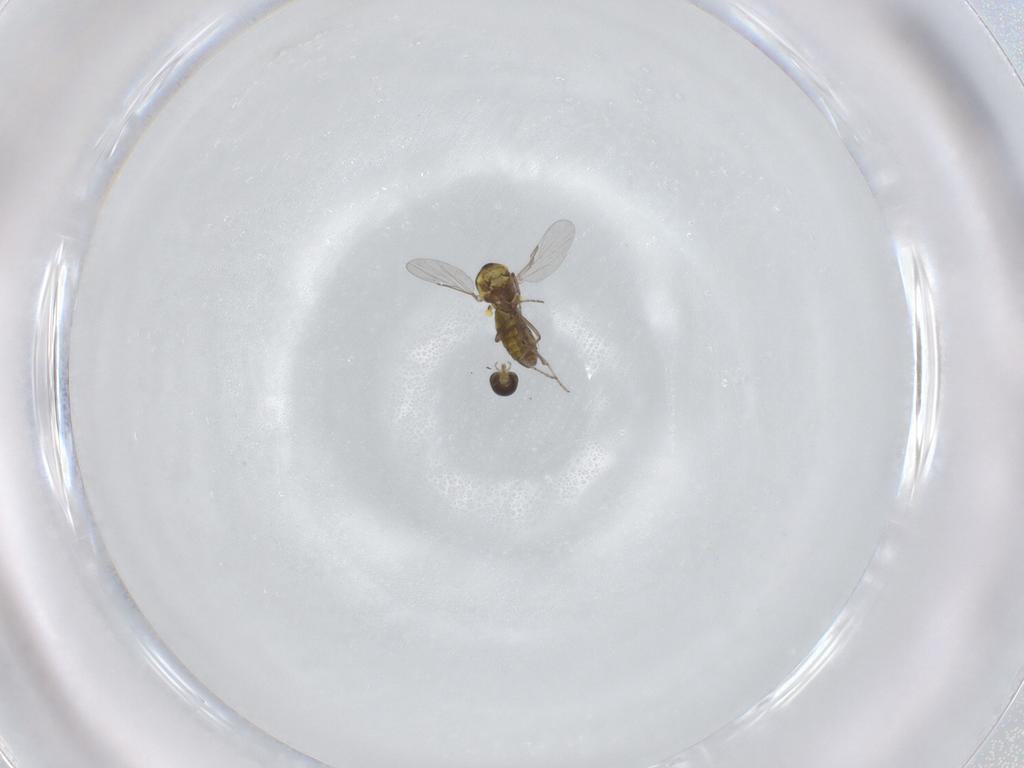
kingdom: Animalia
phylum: Arthropoda
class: Insecta
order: Diptera
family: Ceratopogonidae
